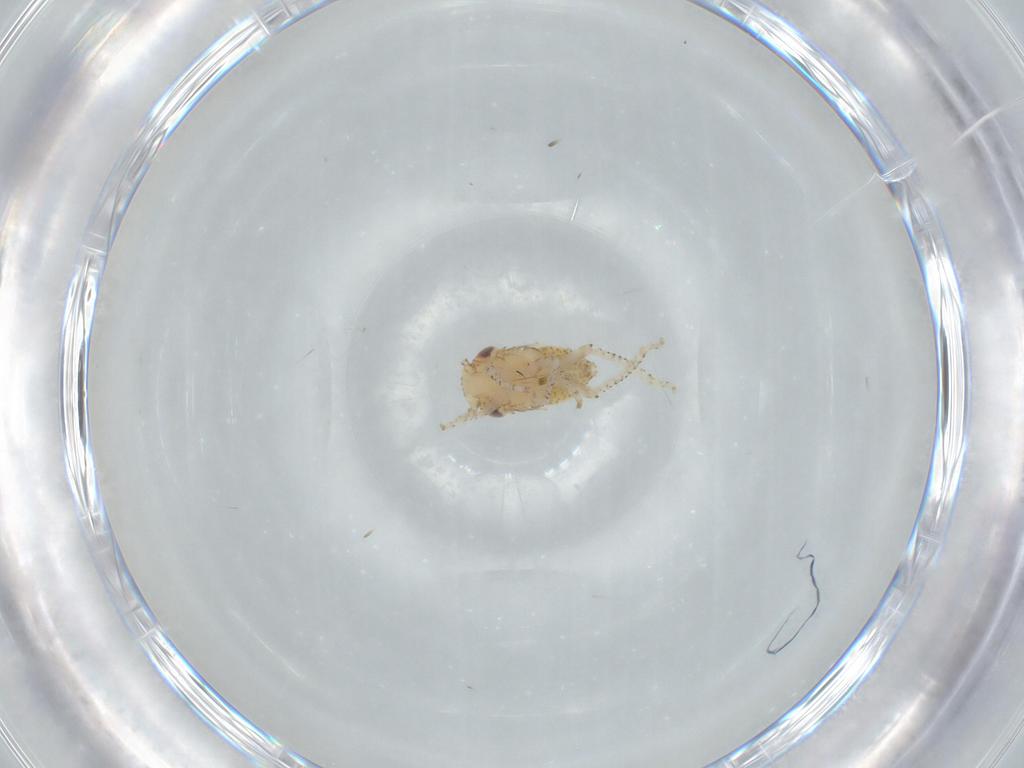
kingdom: Animalia
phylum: Arthropoda
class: Insecta
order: Hemiptera
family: Cicadellidae
